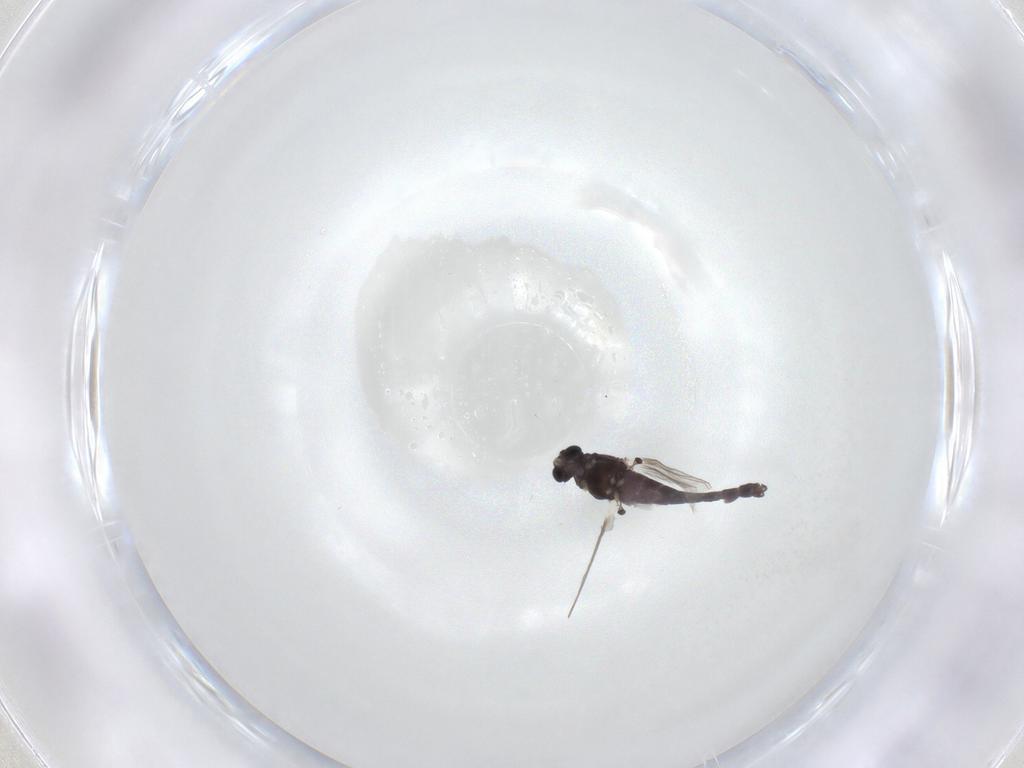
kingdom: Animalia
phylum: Arthropoda
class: Insecta
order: Diptera
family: Chironomidae
